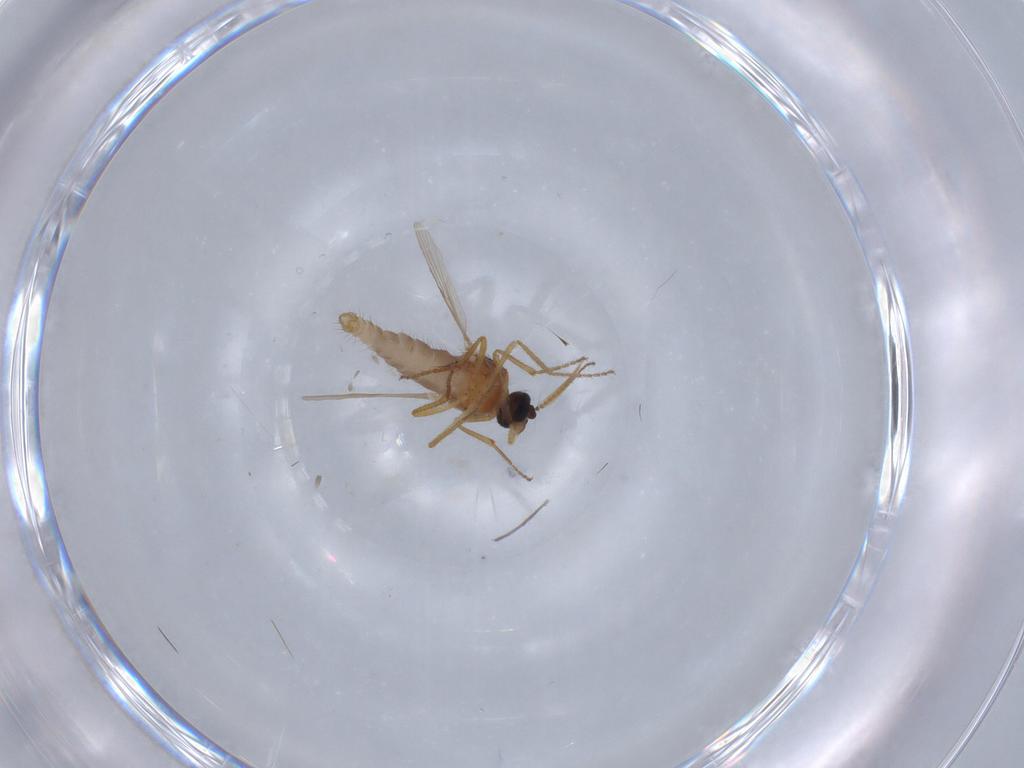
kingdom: Animalia
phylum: Arthropoda
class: Insecta
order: Diptera
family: Ceratopogonidae
